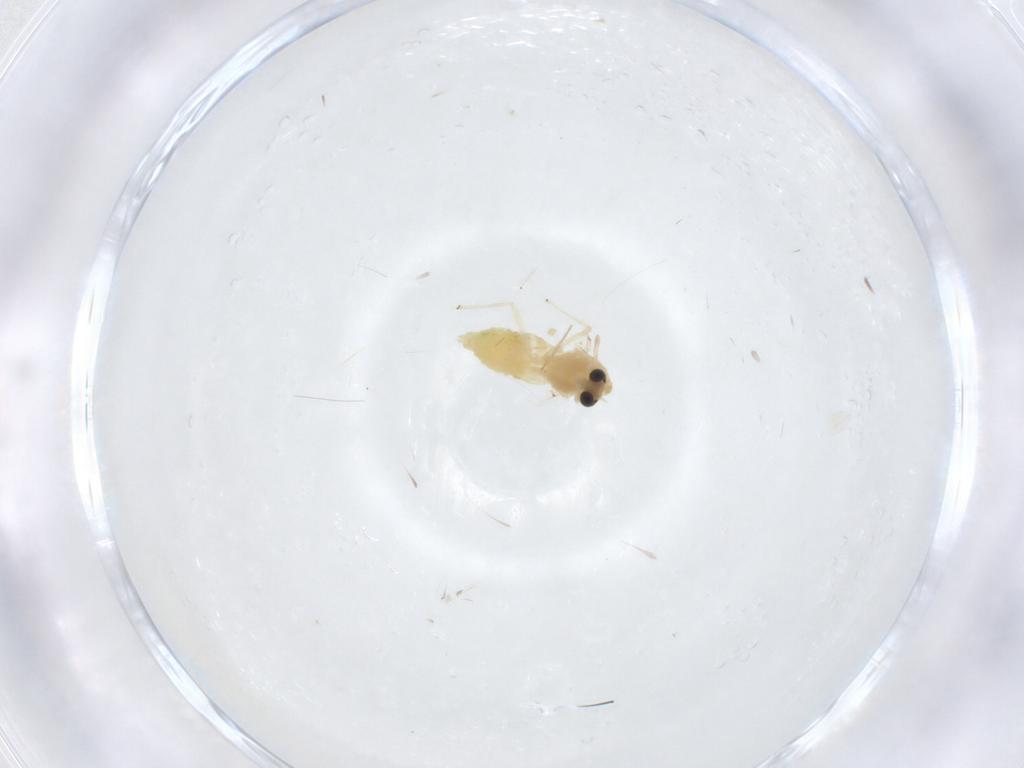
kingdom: Animalia
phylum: Arthropoda
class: Insecta
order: Diptera
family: Chironomidae
